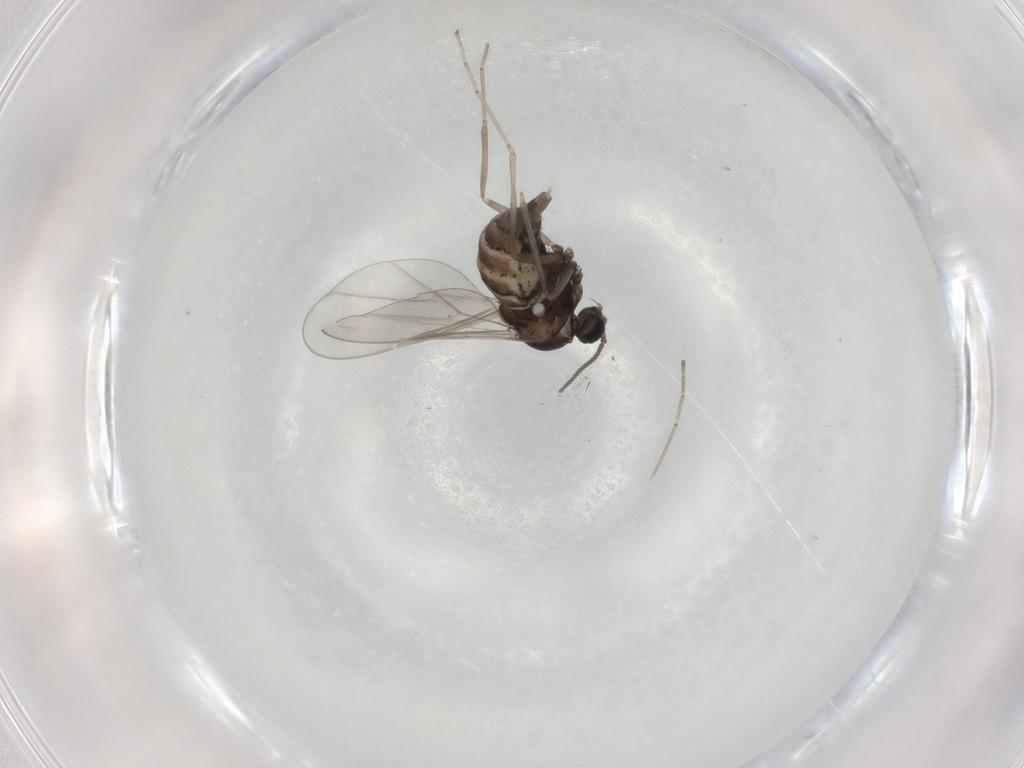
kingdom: Animalia
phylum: Arthropoda
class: Insecta
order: Diptera
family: Cecidomyiidae
